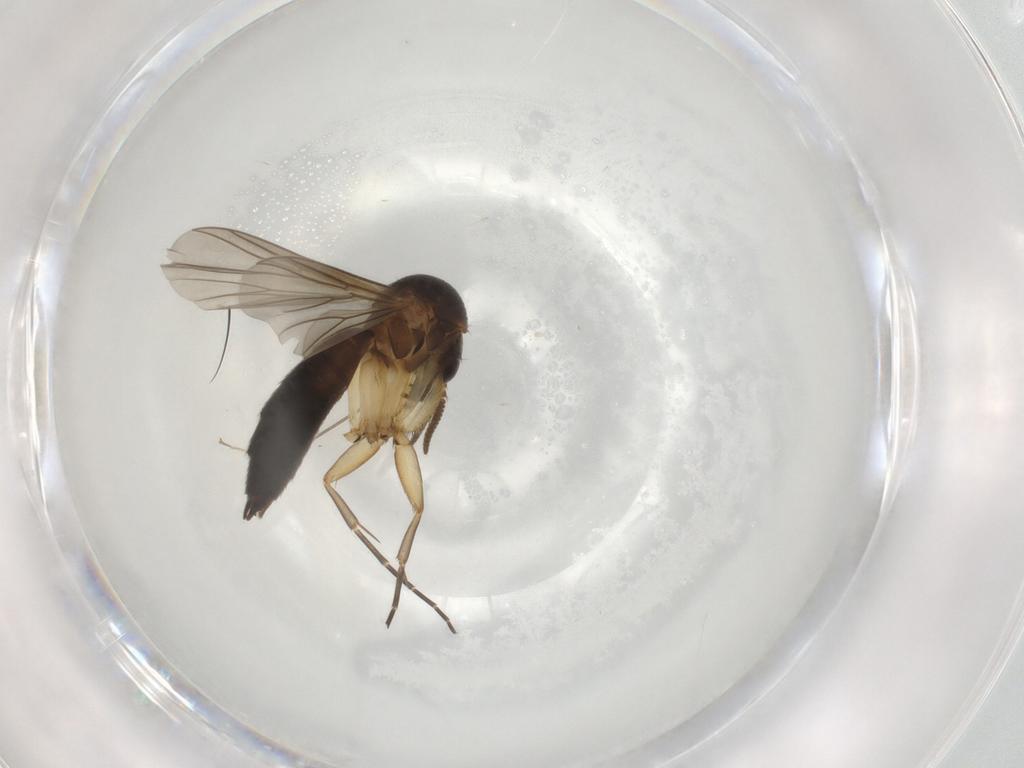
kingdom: Animalia
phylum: Arthropoda
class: Insecta
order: Diptera
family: Mycetophilidae
